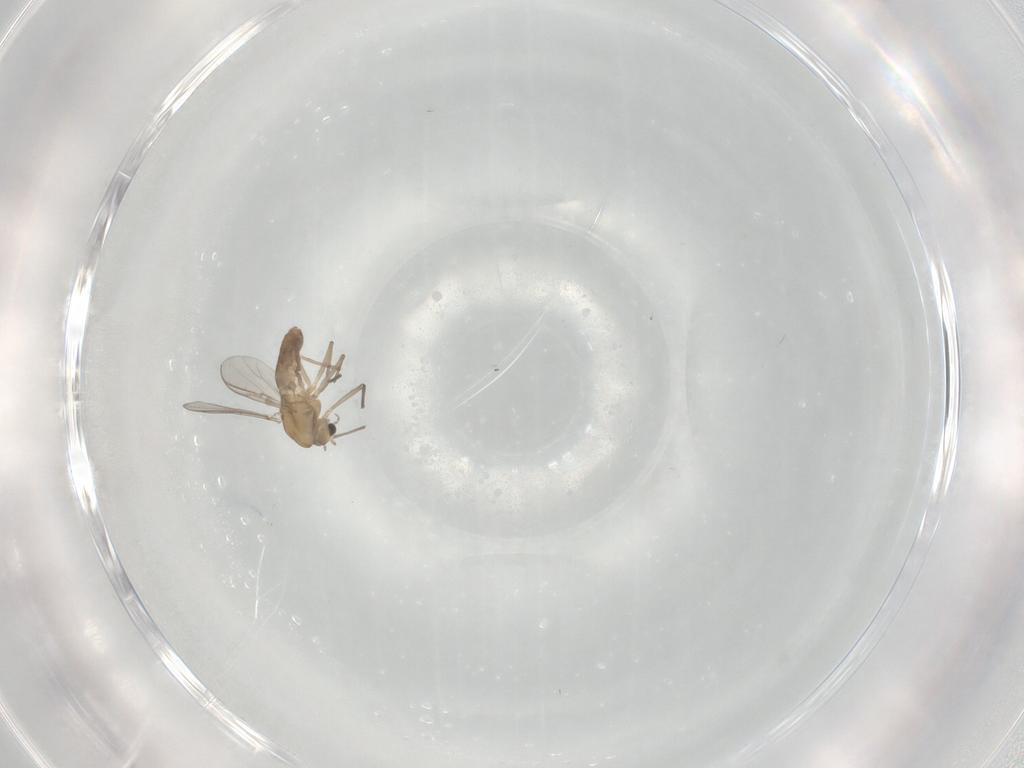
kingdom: Animalia
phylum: Arthropoda
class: Insecta
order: Diptera
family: Chironomidae
